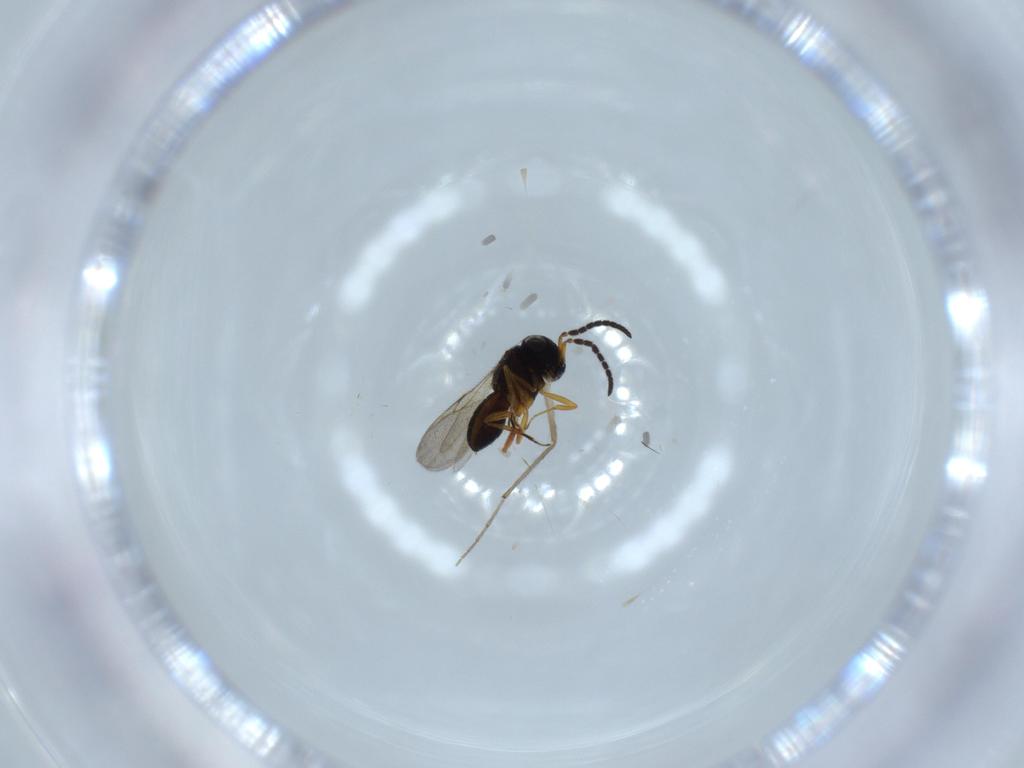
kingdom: Animalia
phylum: Arthropoda
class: Insecta
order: Hymenoptera
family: Scelionidae
